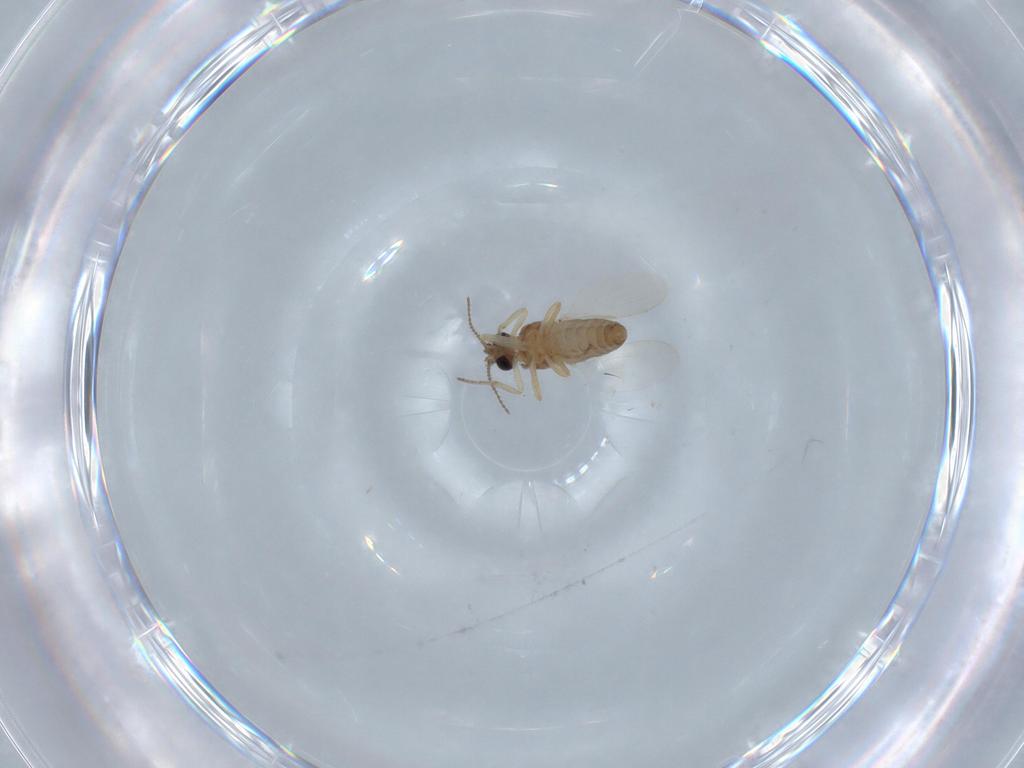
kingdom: Animalia
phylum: Arthropoda
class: Insecta
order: Diptera
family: Ceratopogonidae
